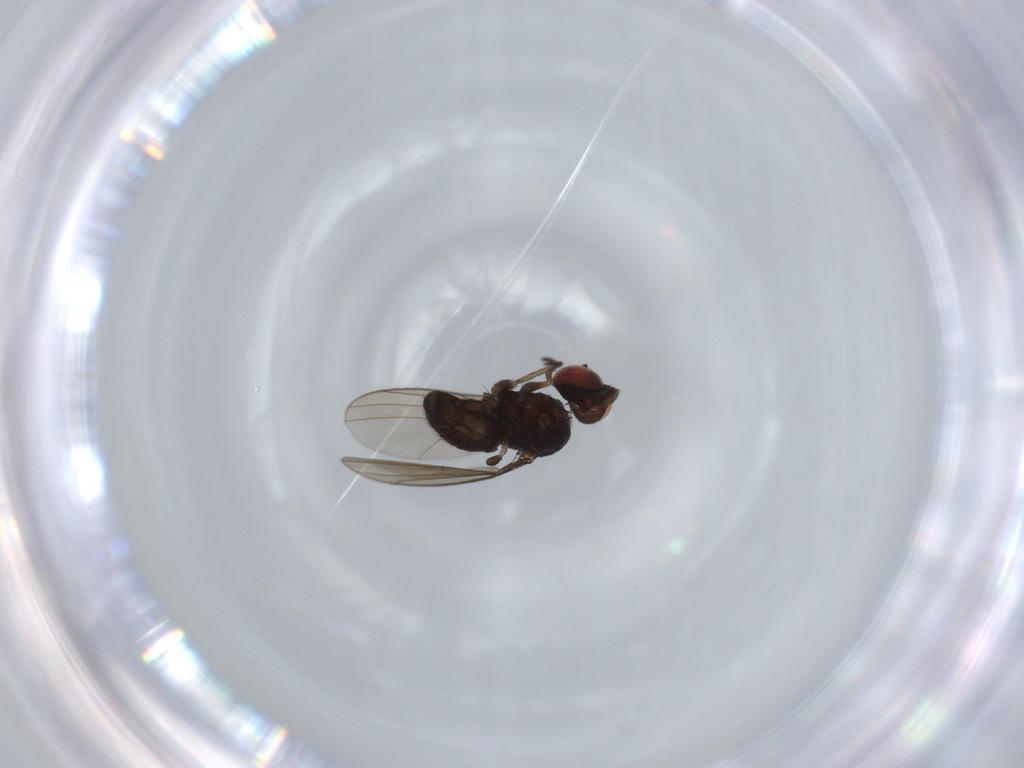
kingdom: Animalia
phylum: Arthropoda
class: Insecta
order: Diptera
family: Dolichopodidae
